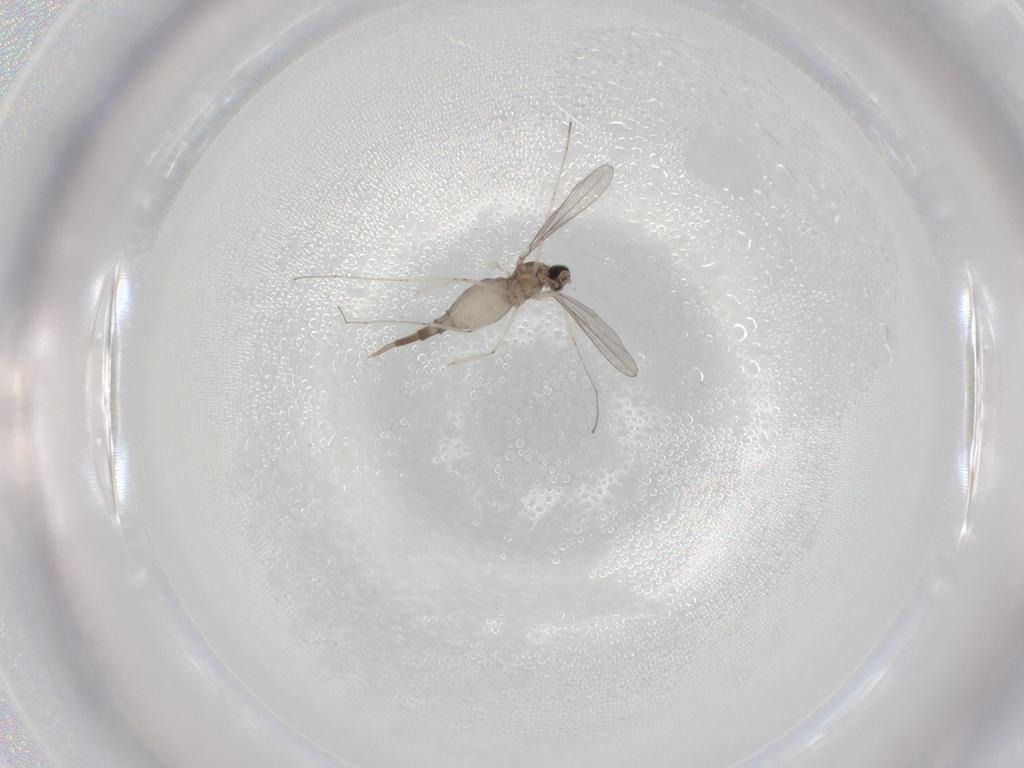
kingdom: Animalia
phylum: Arthropoda
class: Insecta
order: Diptera
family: Cecidomyiidae
